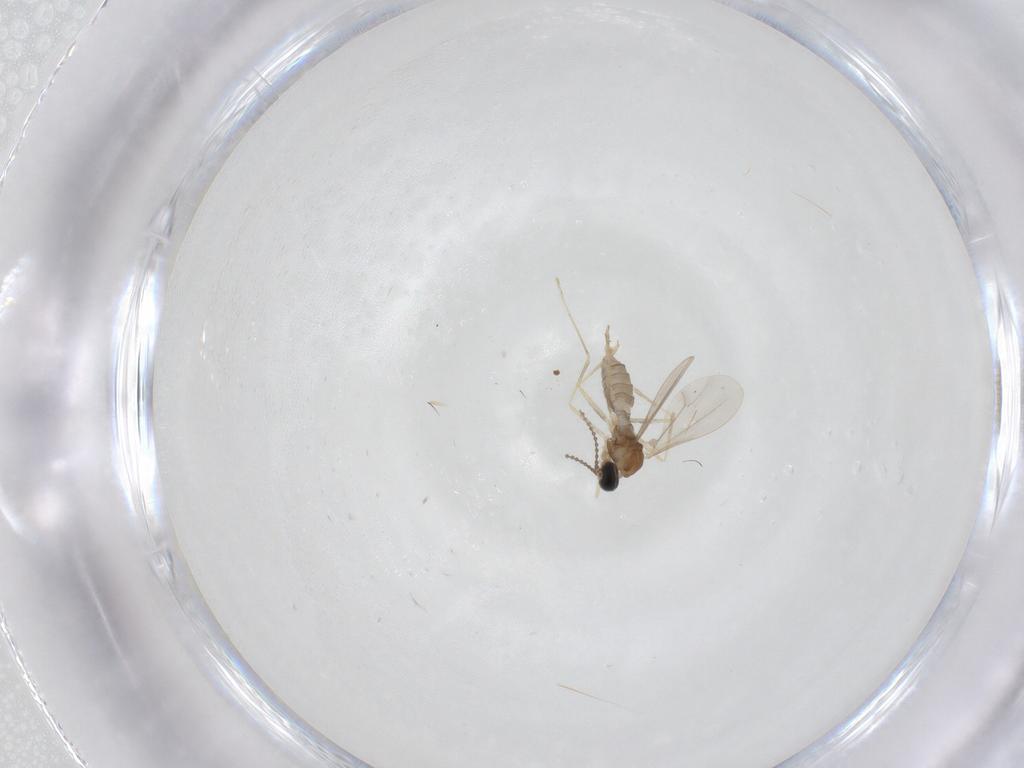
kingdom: Animalia
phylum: Arthropoda
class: Insecta
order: Diptera
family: Cecidomyiidae
